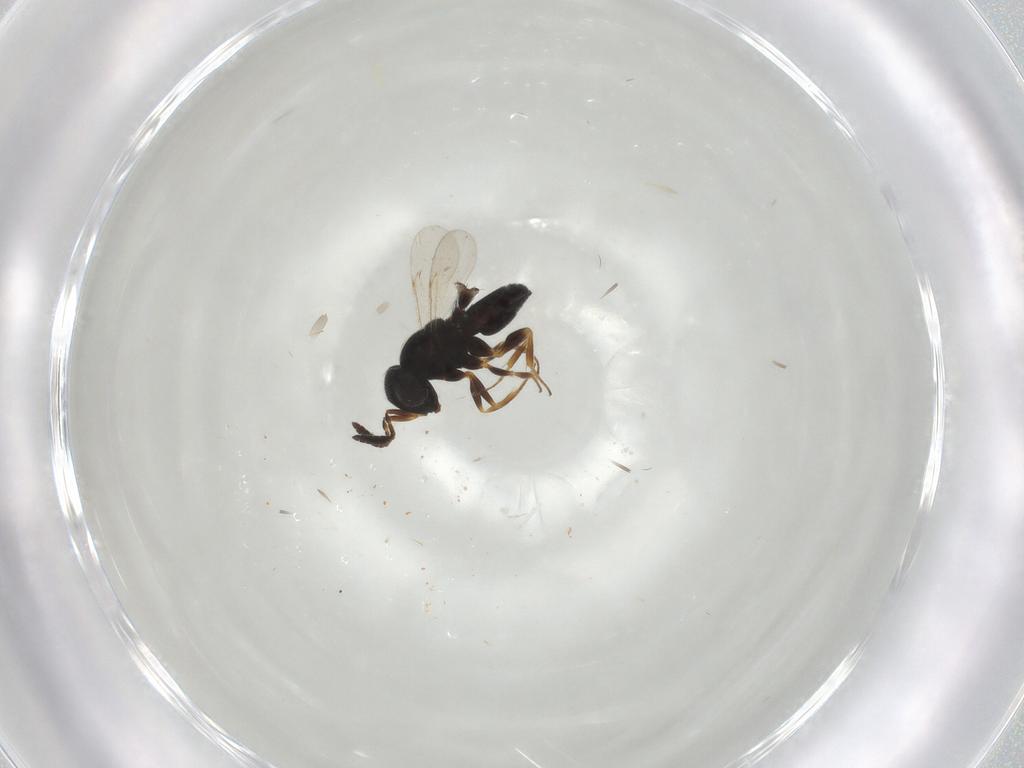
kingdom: Animalia
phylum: Arthropoda
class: Insecta
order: Hymenoptera
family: Scelionidae
